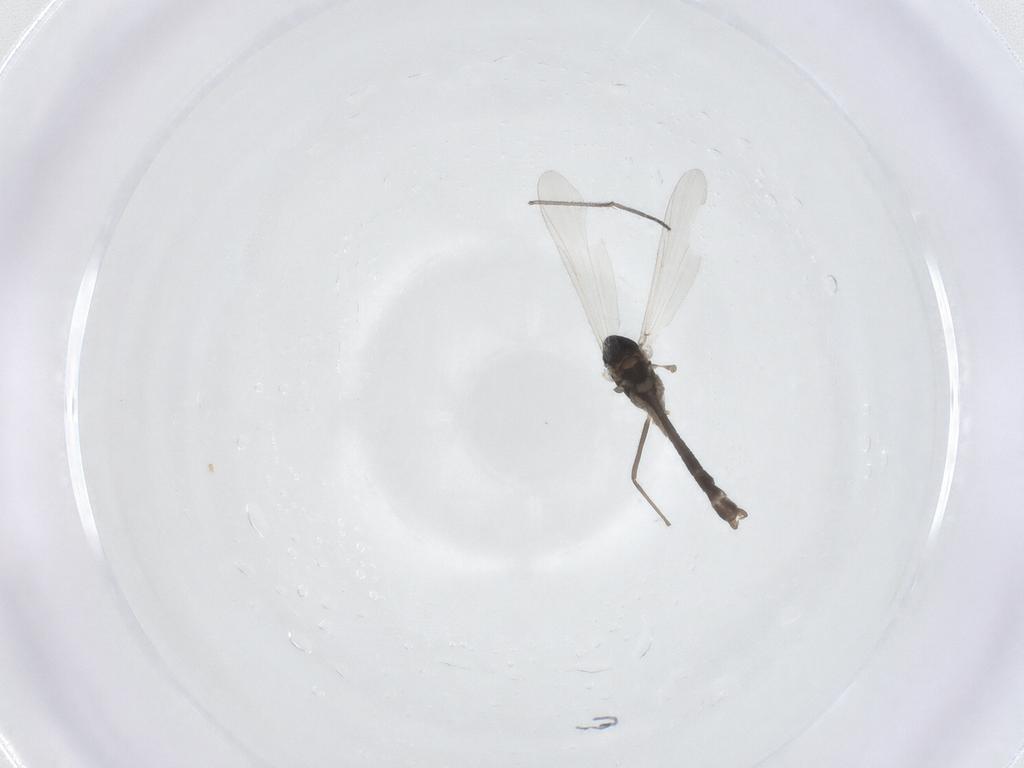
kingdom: Animalia
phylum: Arthropoda
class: Insecta
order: Diptera
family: Chironomidae
